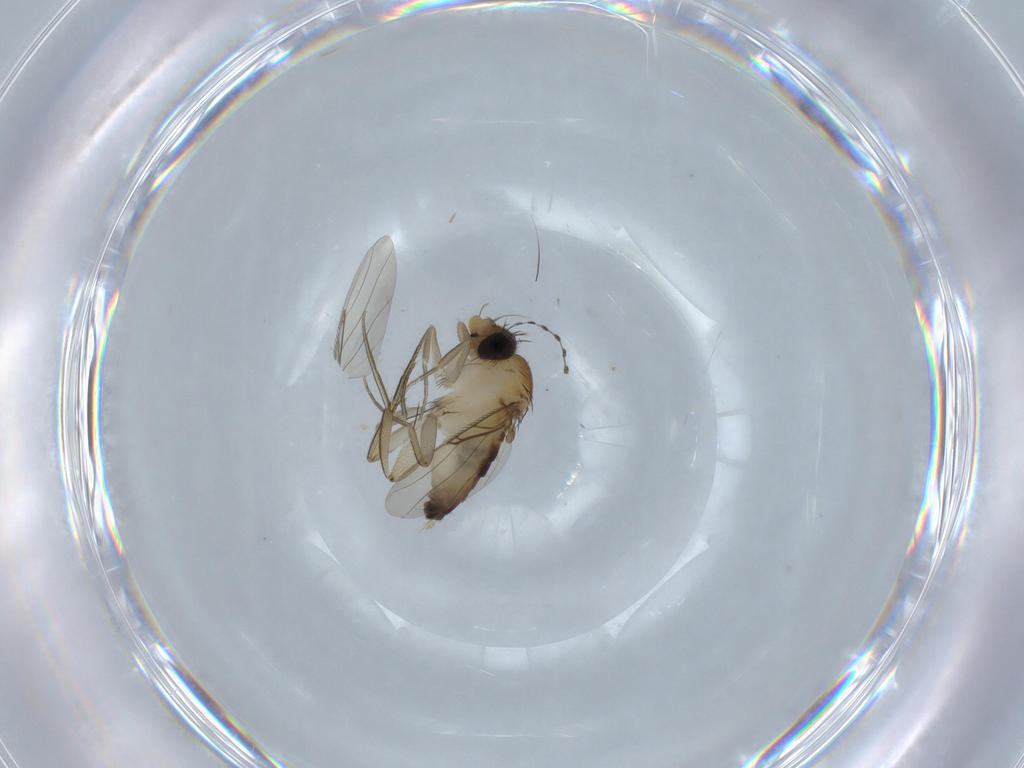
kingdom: Animalia
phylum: Arthropoda
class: Insecta
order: Diptera
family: Phoridae
